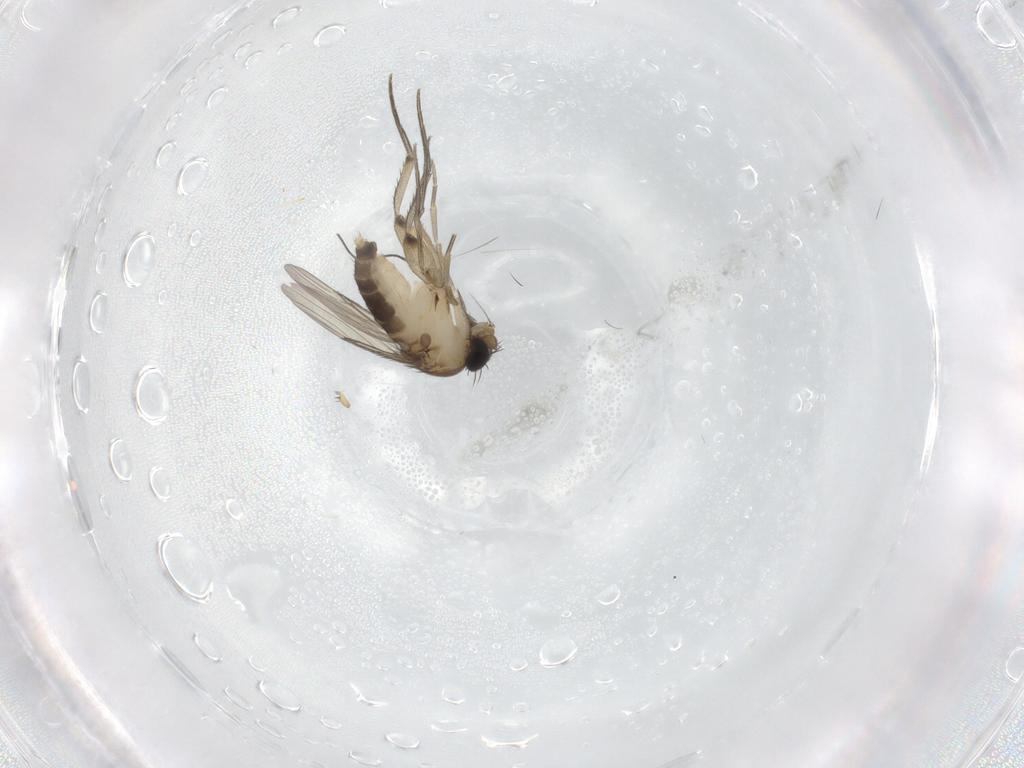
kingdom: Animalia
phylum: Arthropoda
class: Insecta
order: Diptera
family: Phoridae
